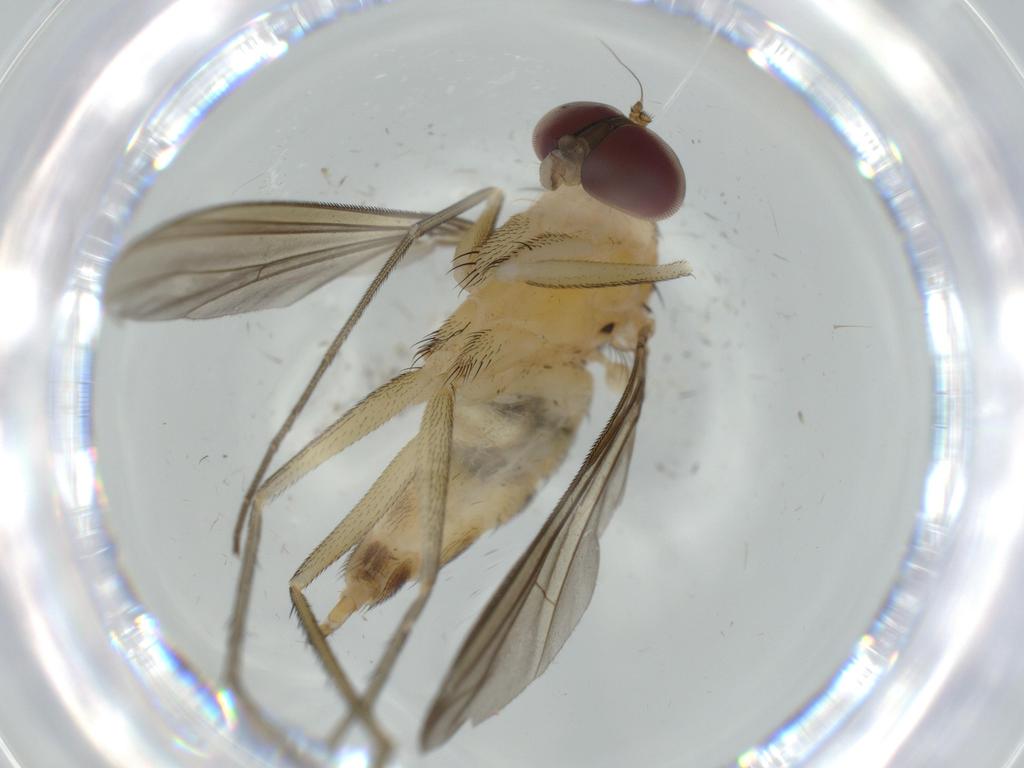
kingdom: Animalia
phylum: Arthropoda
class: Insecta
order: Diptera
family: Dolichopodidae
